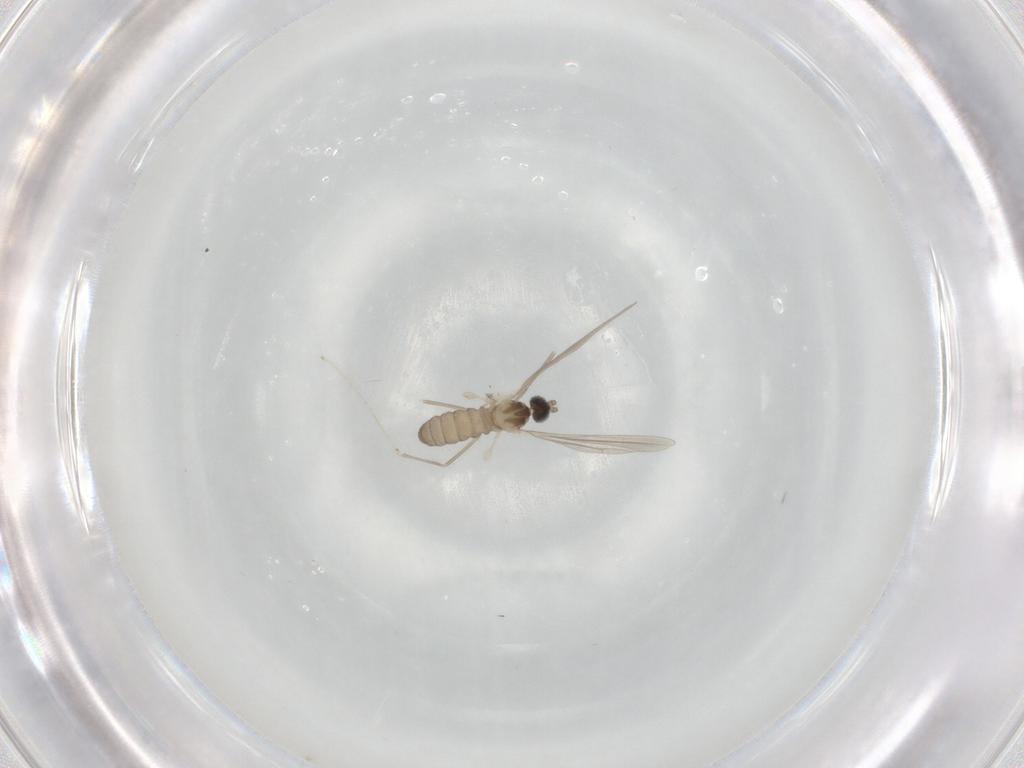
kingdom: Animalia
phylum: Arthropoda
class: Insecta
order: Diptera
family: Cecidomyiidae
